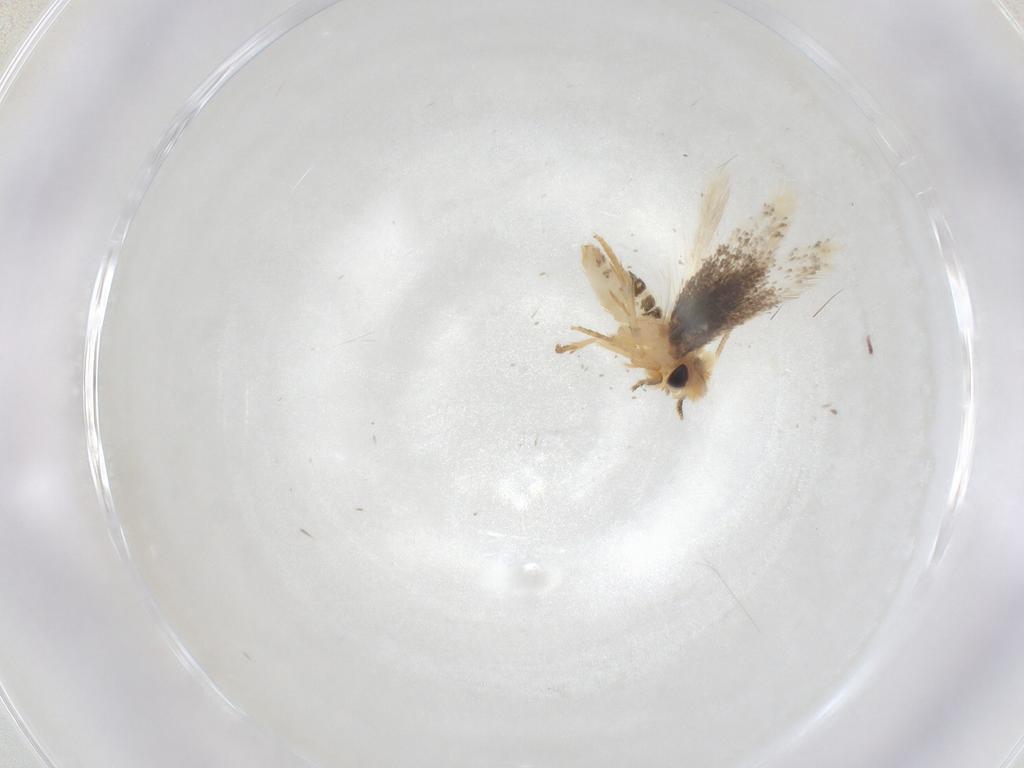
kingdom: Animalia
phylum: Arthropoda
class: Insecta
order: Lepidoptera
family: Nepticulidae
